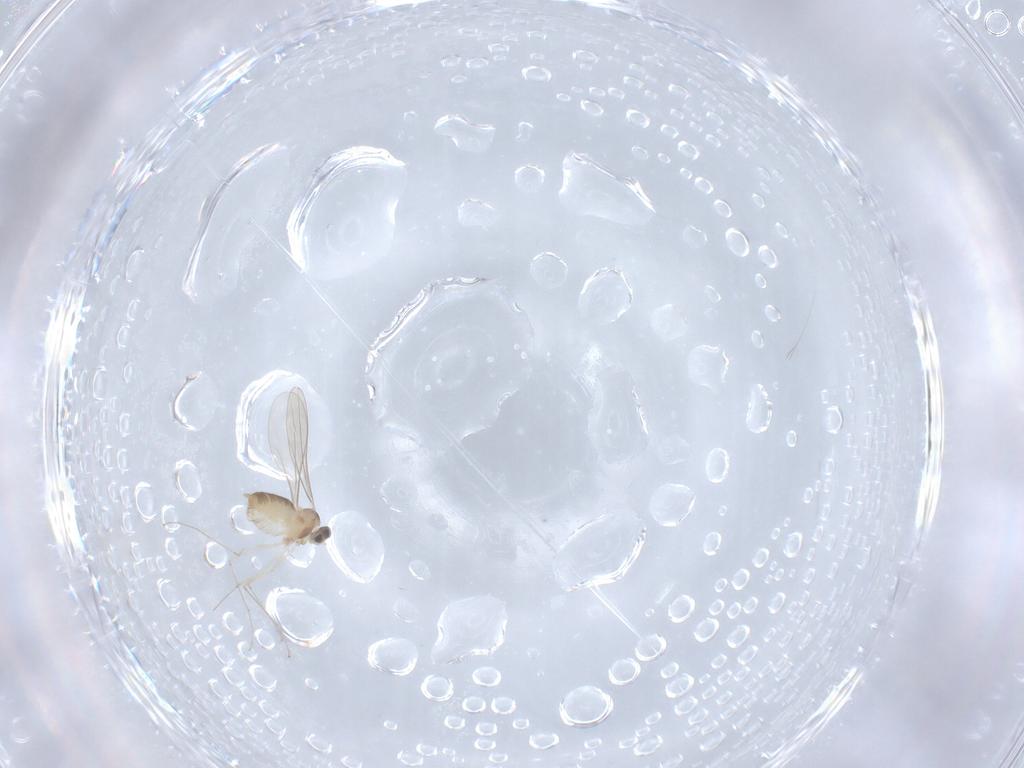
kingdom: Animalia
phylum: Arthropoda
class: Insecta
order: Diptera
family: Cecidomyiidae
